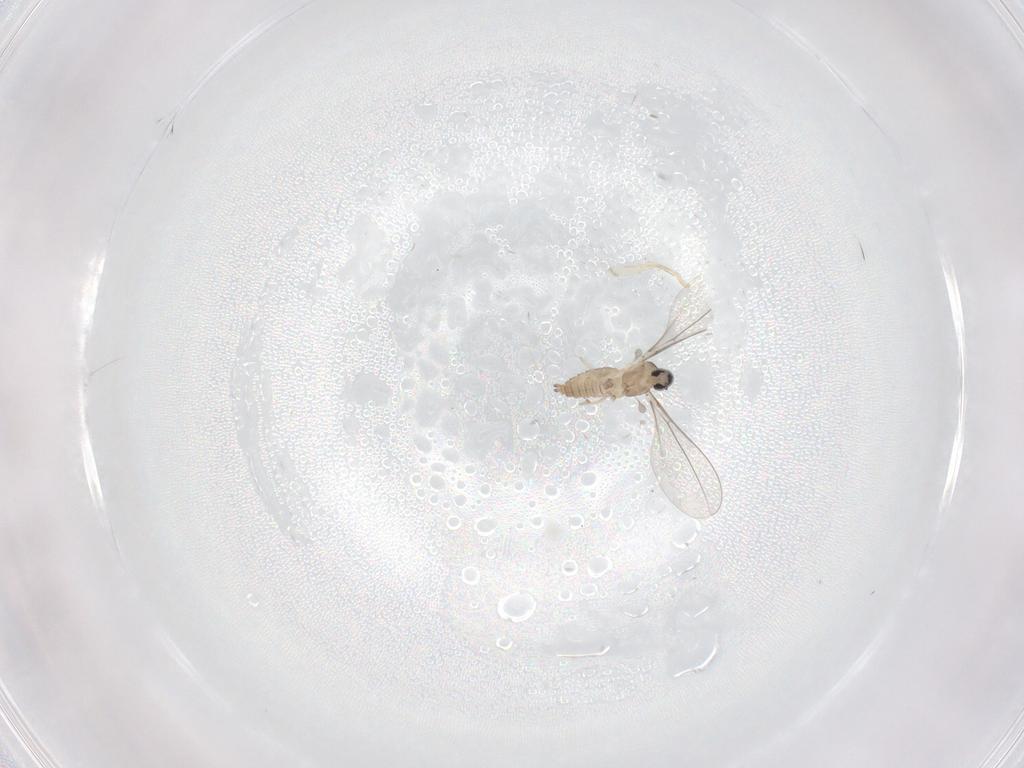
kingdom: Animalia
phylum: Arthropoda
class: Insecta
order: Diptera
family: Cecidomyiidae
